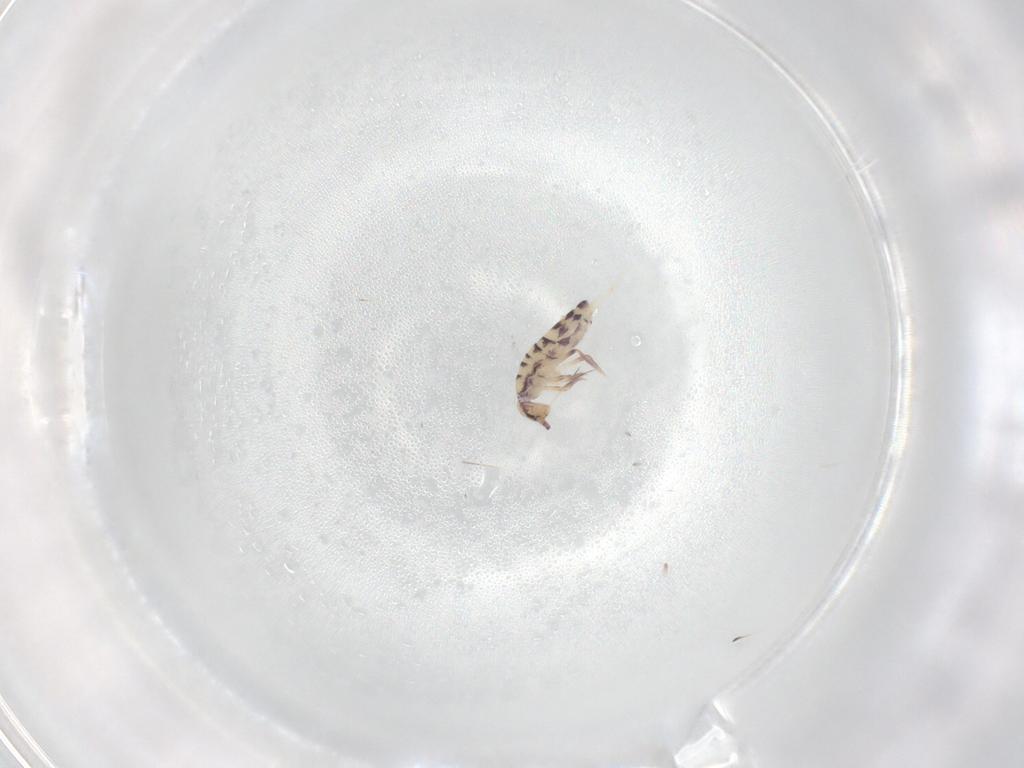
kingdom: Animalia
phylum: Arthropoda
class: Collembola
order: Entomobryomorpha
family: Entomobryidae
